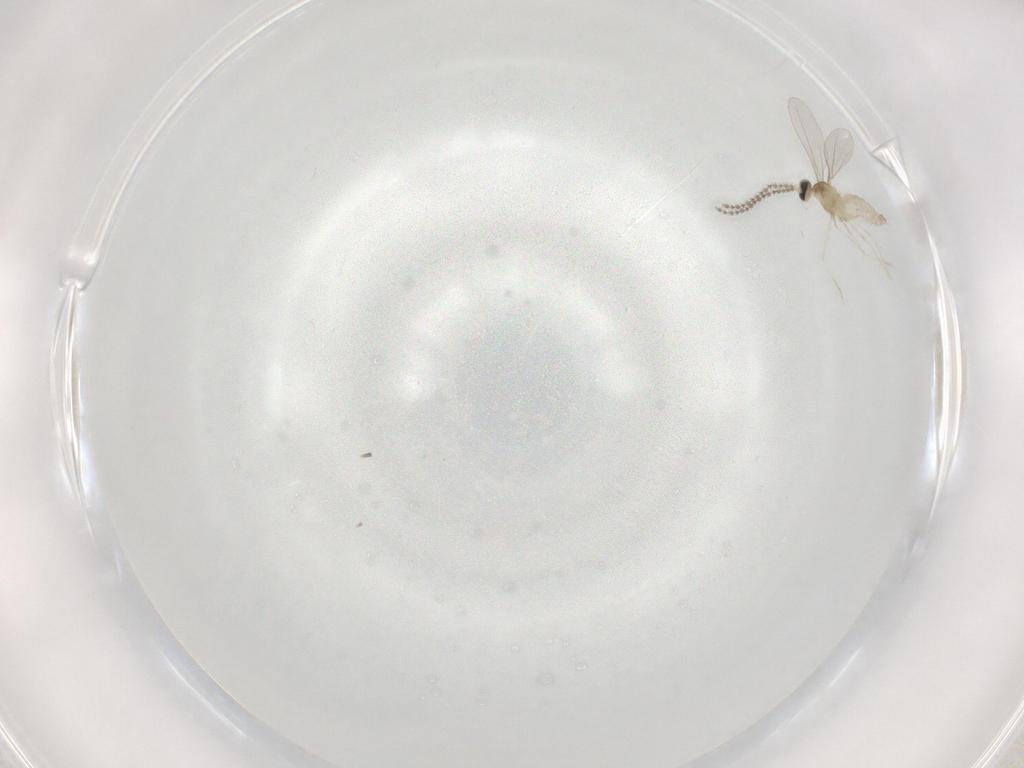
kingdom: Animalia
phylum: Arthropoda
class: Insecta
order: Diptera
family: Cecidomyiidae
